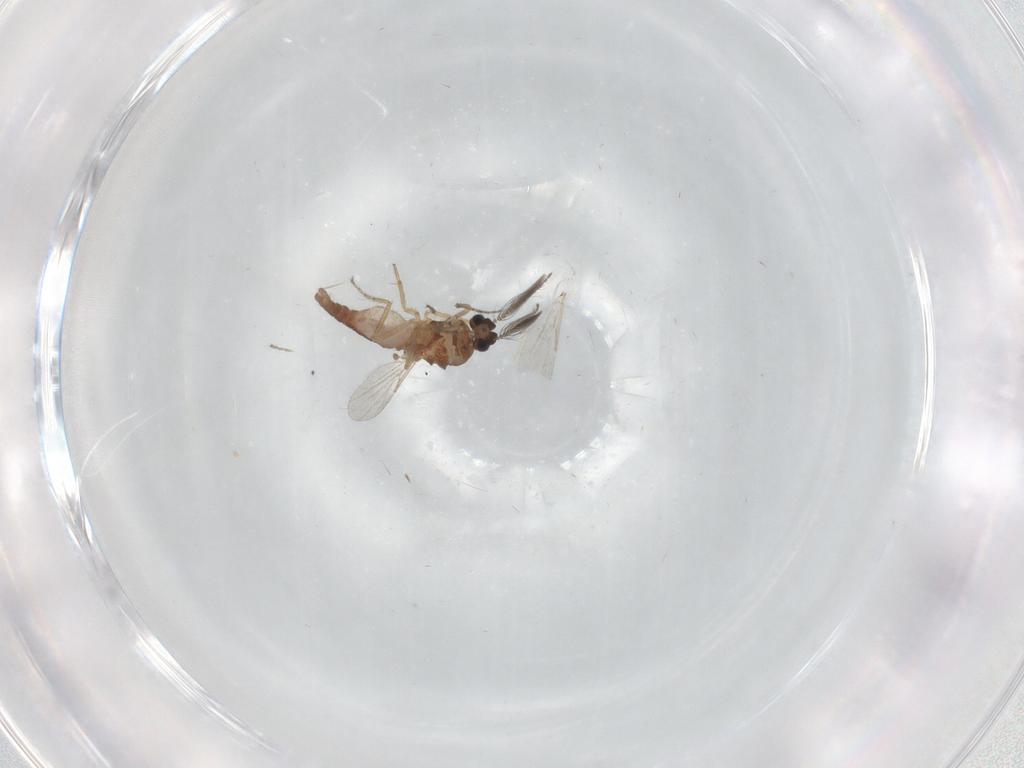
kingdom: Animalia
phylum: Arthropoda
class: Insecta
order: Diptera
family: Ceratopogonidae
